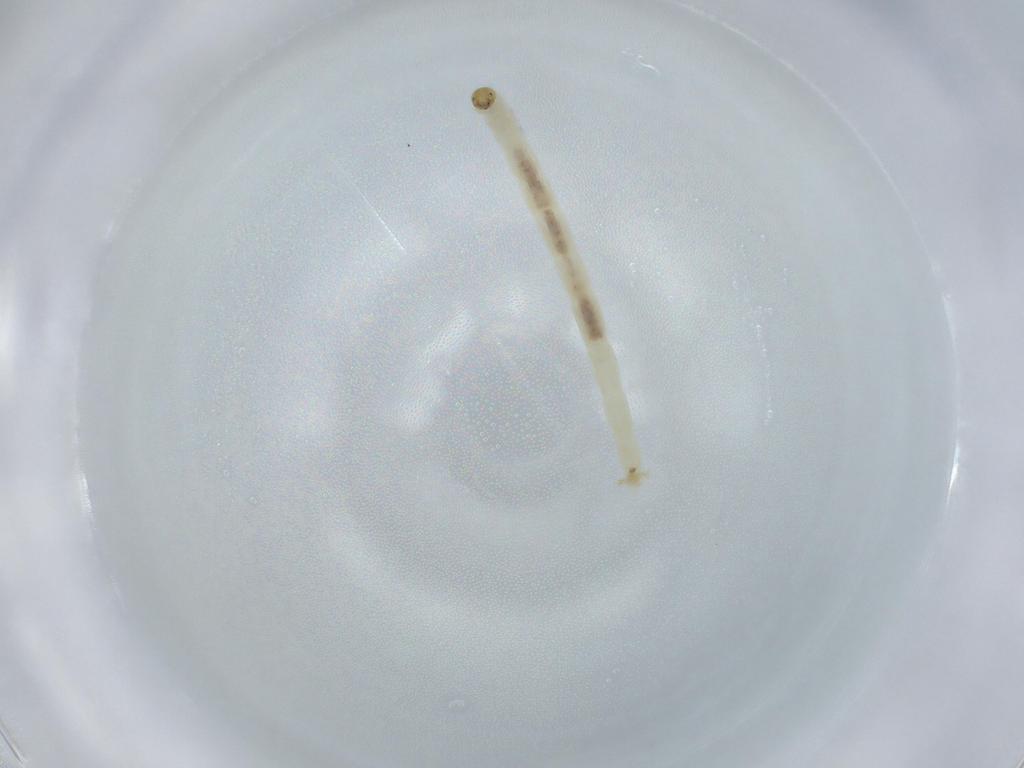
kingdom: Animalia
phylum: Arthropoda
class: Insecta
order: Diptera
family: Chironomidae
